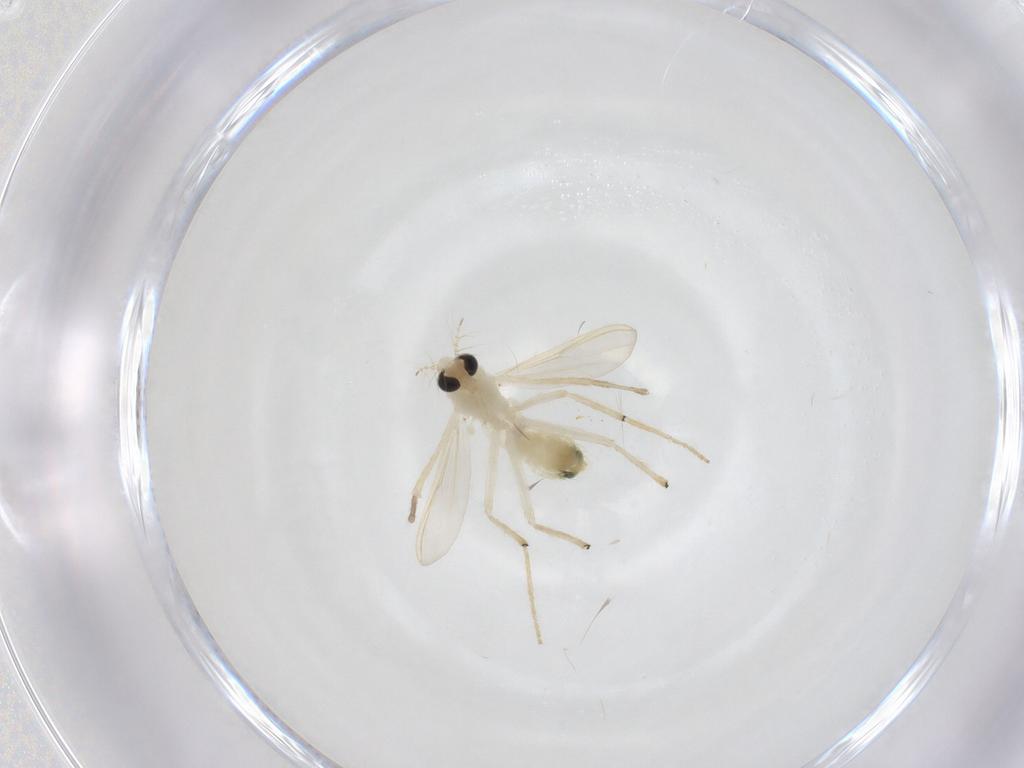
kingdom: Animalia
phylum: Arthropoda
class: Insecta
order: Diptera
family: Chironomidae
